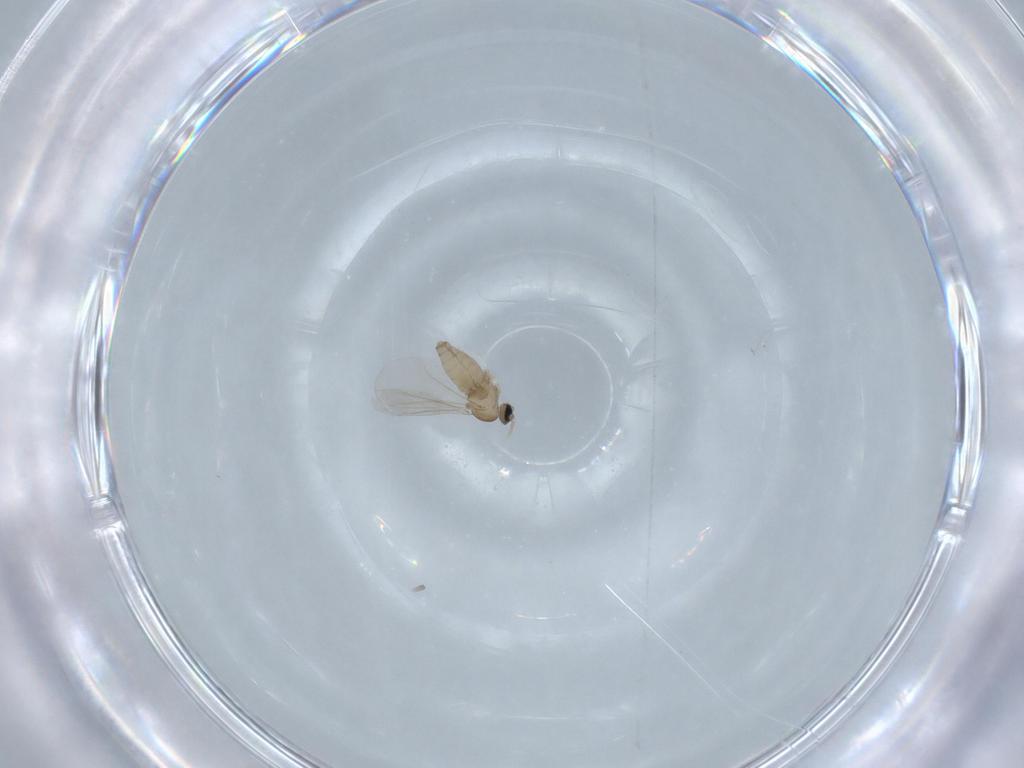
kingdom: Animalia
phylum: Arthropoda
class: Insecta
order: Diptera
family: Cecidomyiidae
